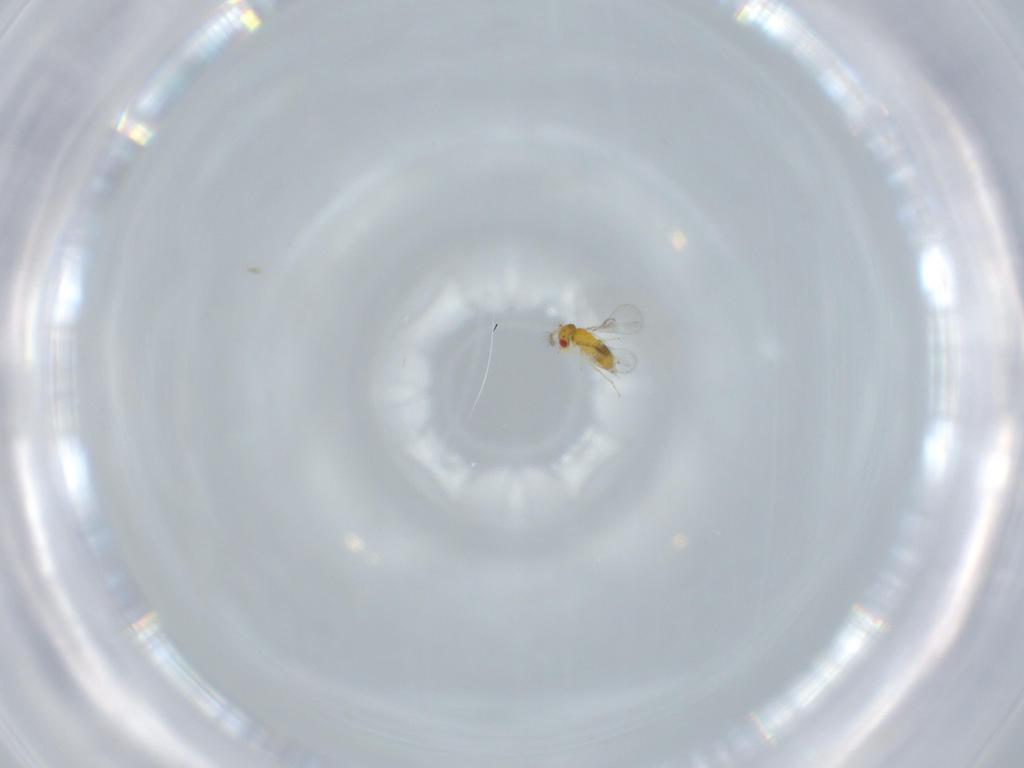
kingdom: Animalia
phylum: Arthropoda
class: Insecta
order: Hymenoptera
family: Trichogrammatidae
